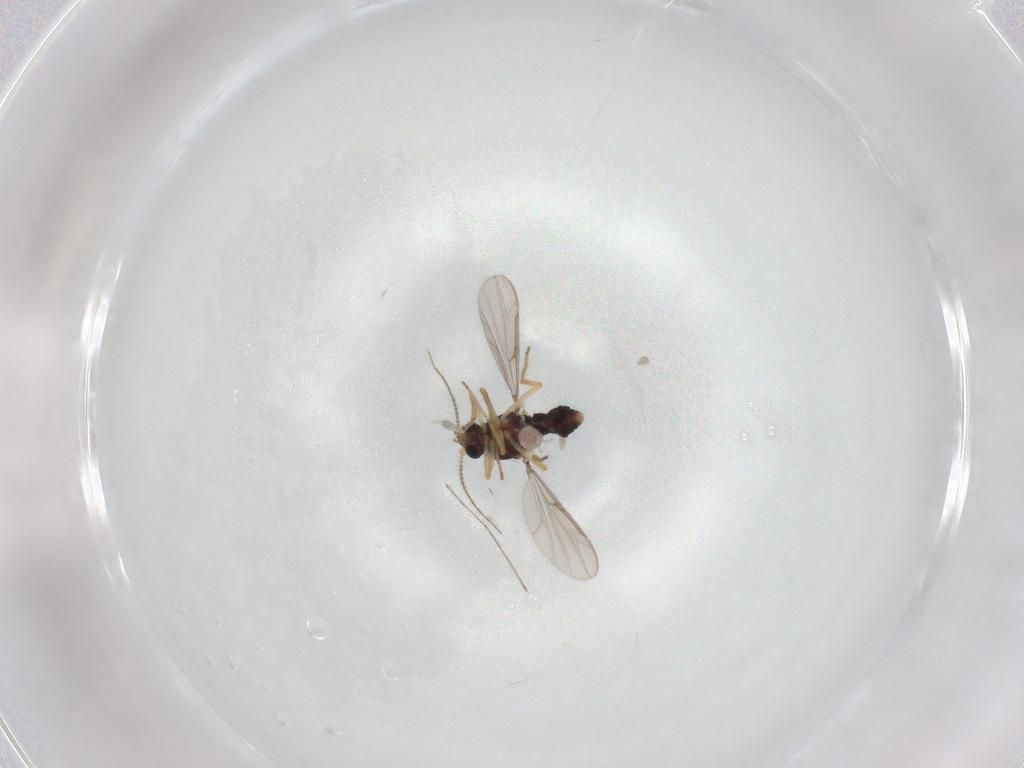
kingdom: Animalia
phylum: Arthropoda
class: Insecta
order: Diptera
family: Ceratopogonidae
